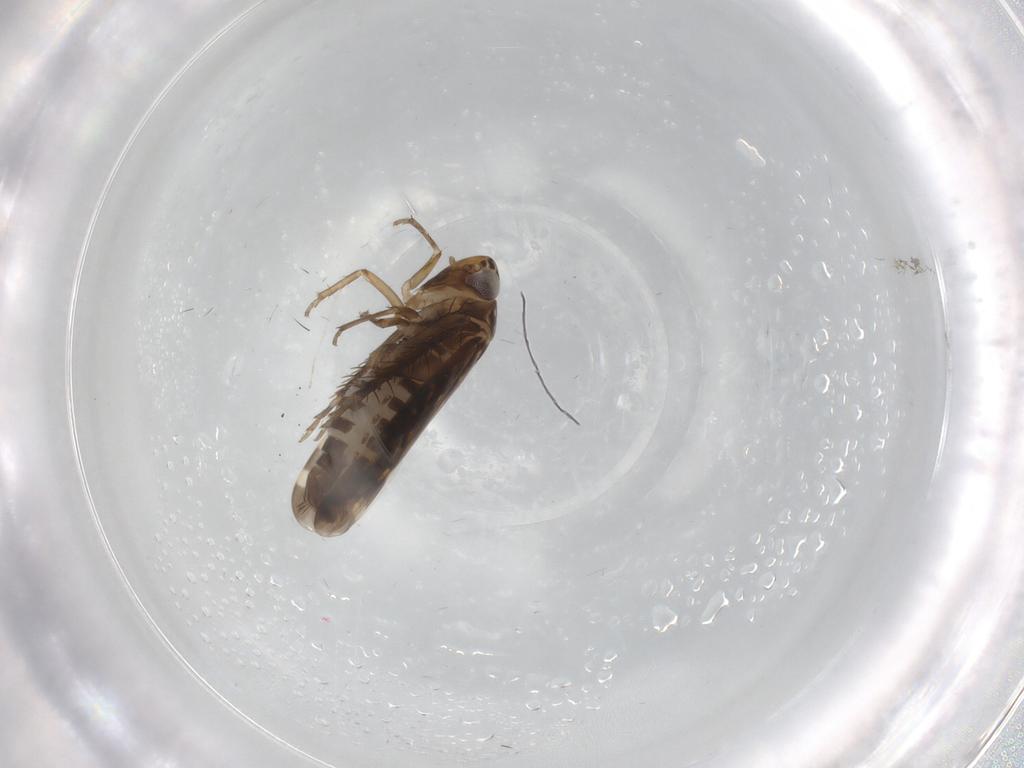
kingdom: Animalia
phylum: Arthropoda
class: Insecta
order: Hemiptera
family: Cicadellidae
